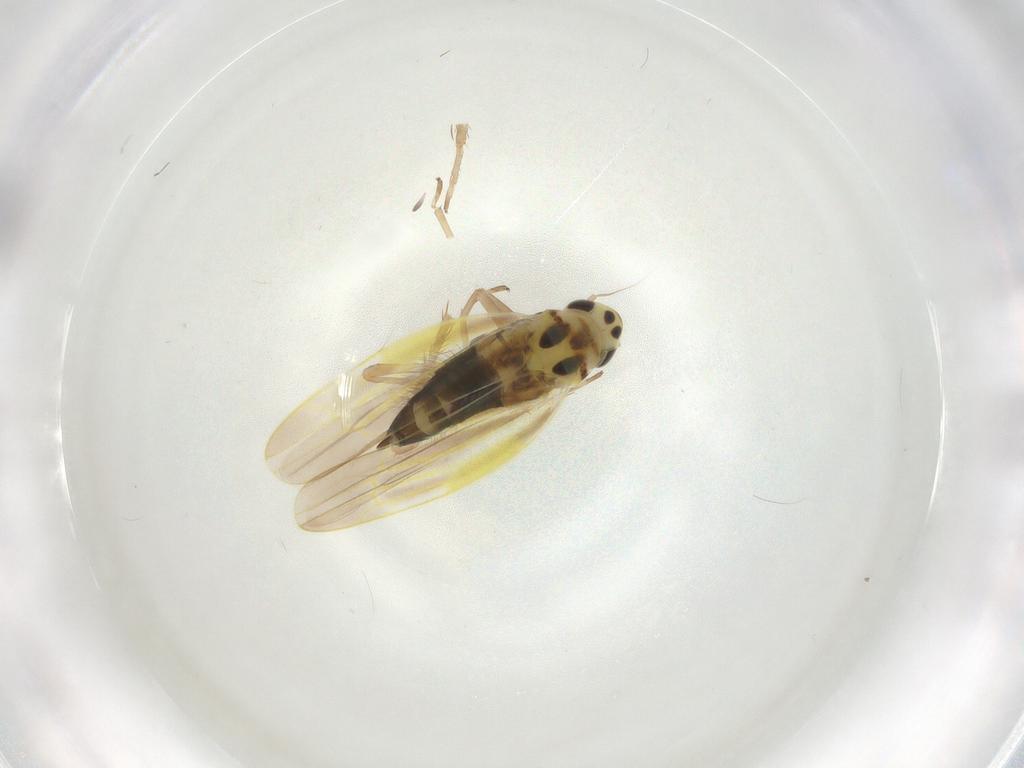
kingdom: Animalia
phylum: Arthropoda
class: Insecta
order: Hemiptera
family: Cicadellidae
